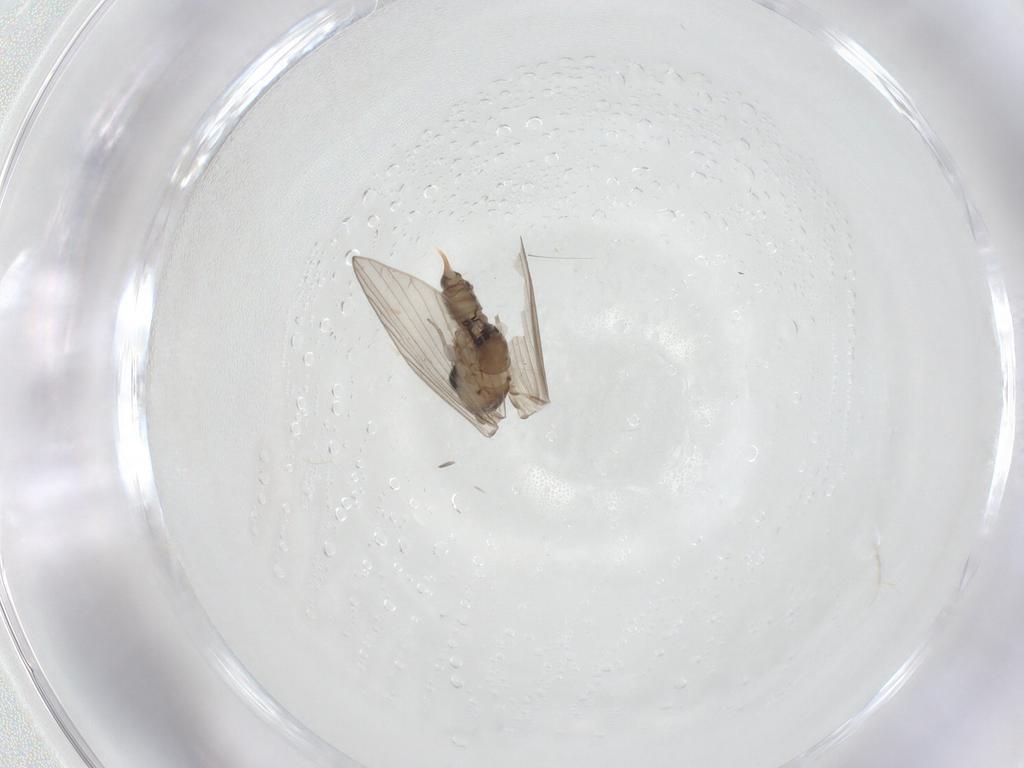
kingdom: Animalia
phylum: Arthropoda
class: Insecta
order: Diptera
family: Psychodidae
